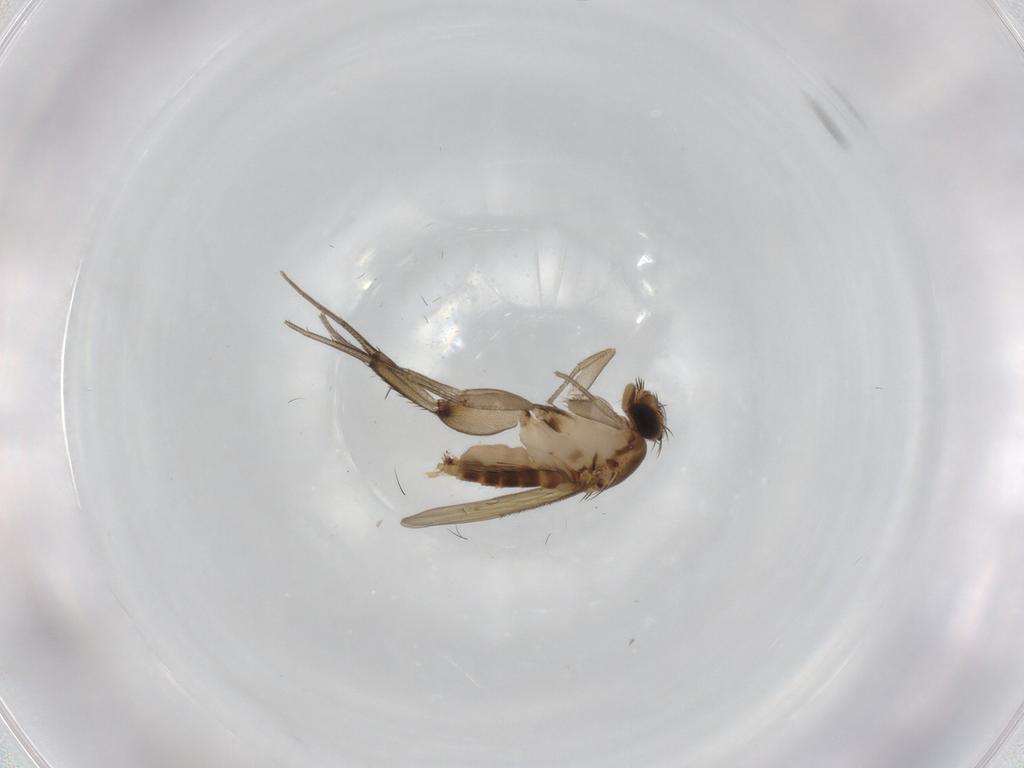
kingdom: Animalia
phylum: Arthropoda
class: Insecta
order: Diptera
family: Phoridae
